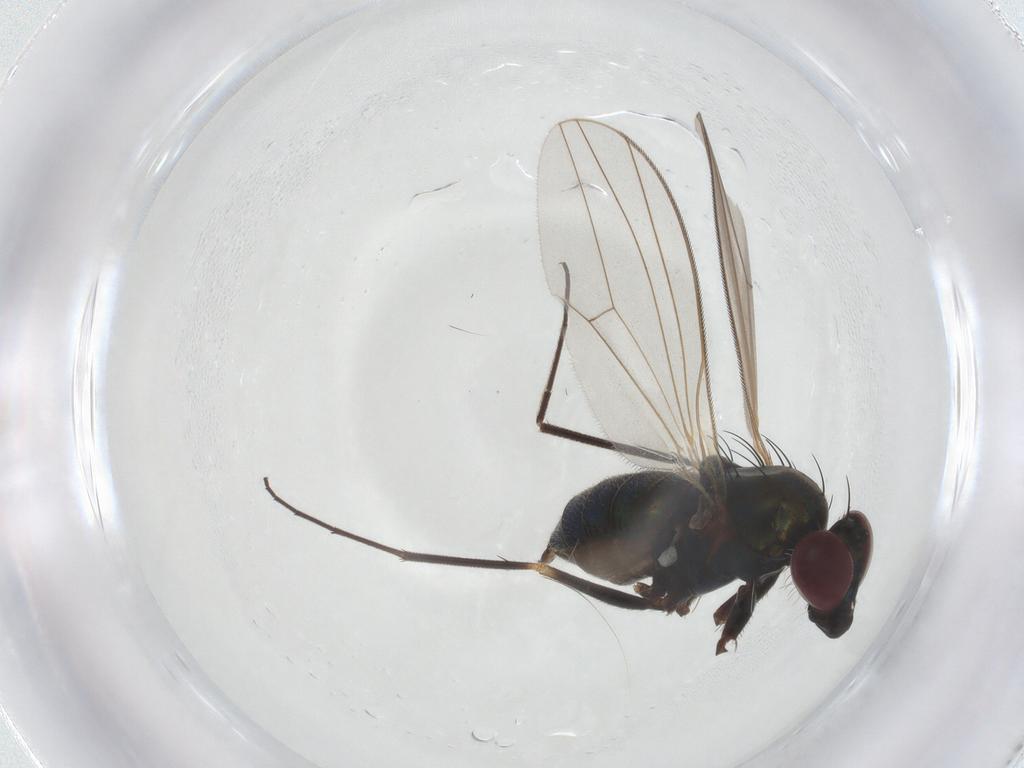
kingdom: Animalia
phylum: Arthropoda
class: Insecta
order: Diptera
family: Dolichopodidae
